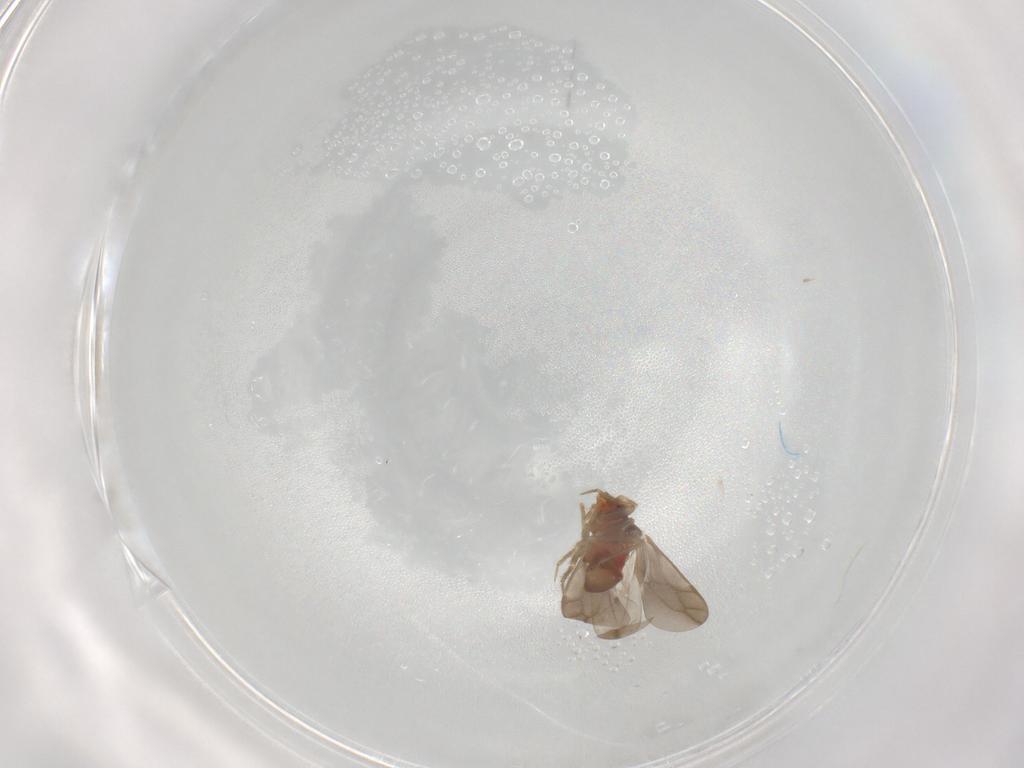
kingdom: Animalia
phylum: Arthropoda
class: Insecta
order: Hemiptera
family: Ceratocombidae
